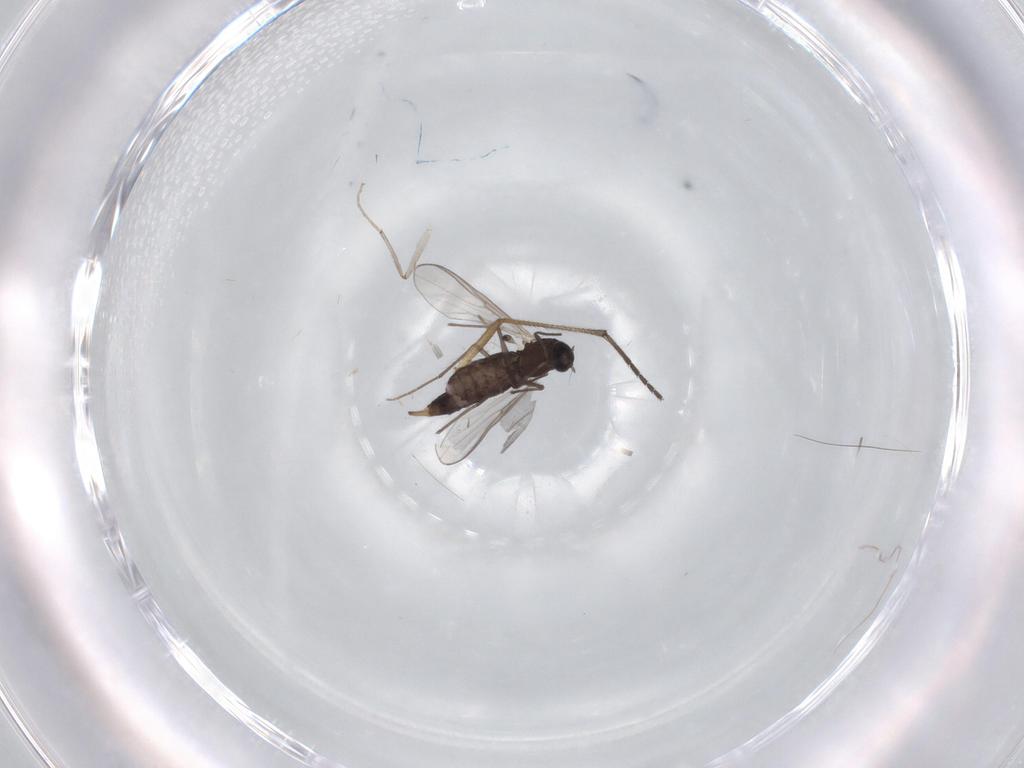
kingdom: Animalia
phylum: Arthropoda
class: Insecta
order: Diptera
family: Chironomidae
